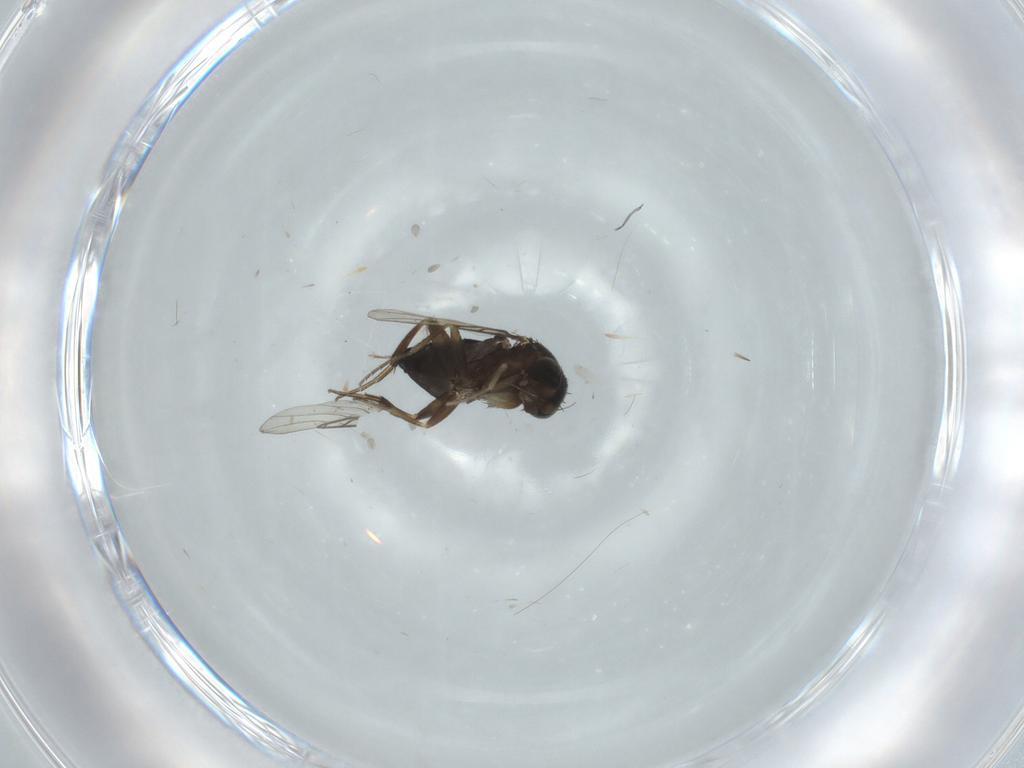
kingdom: Animalia
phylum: Arthropoda
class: Insecta
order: Diptera
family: Phoridae
